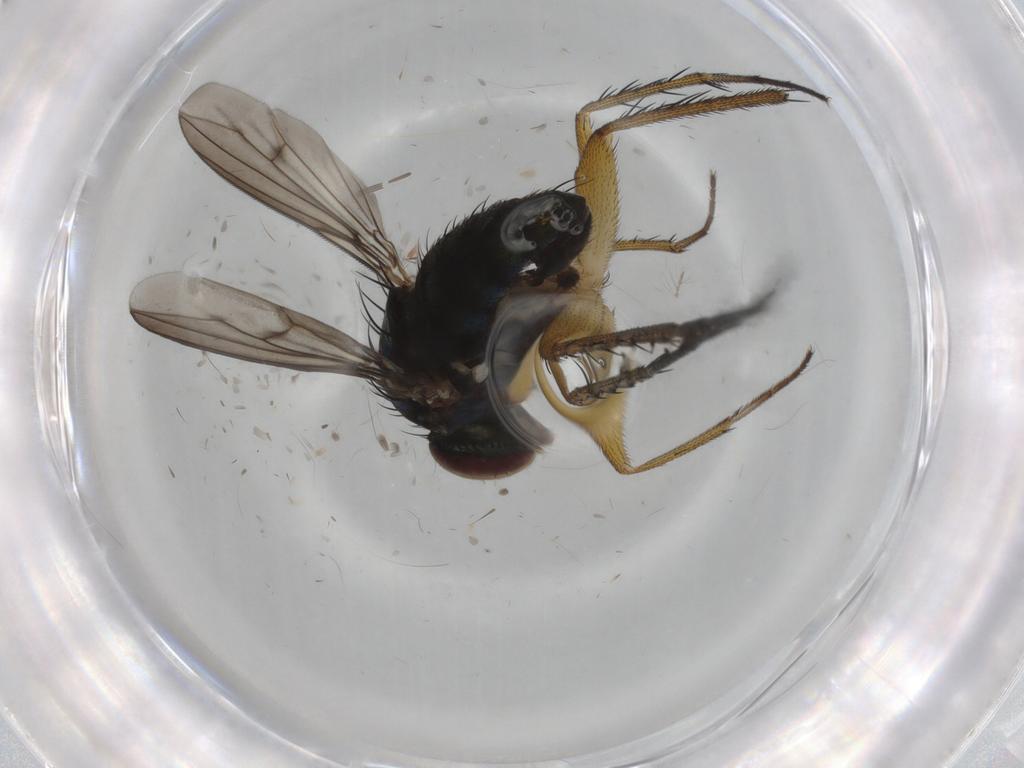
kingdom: Animalia
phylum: Arthropoda
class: Insecta
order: Diptera
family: Dolichopodidae
